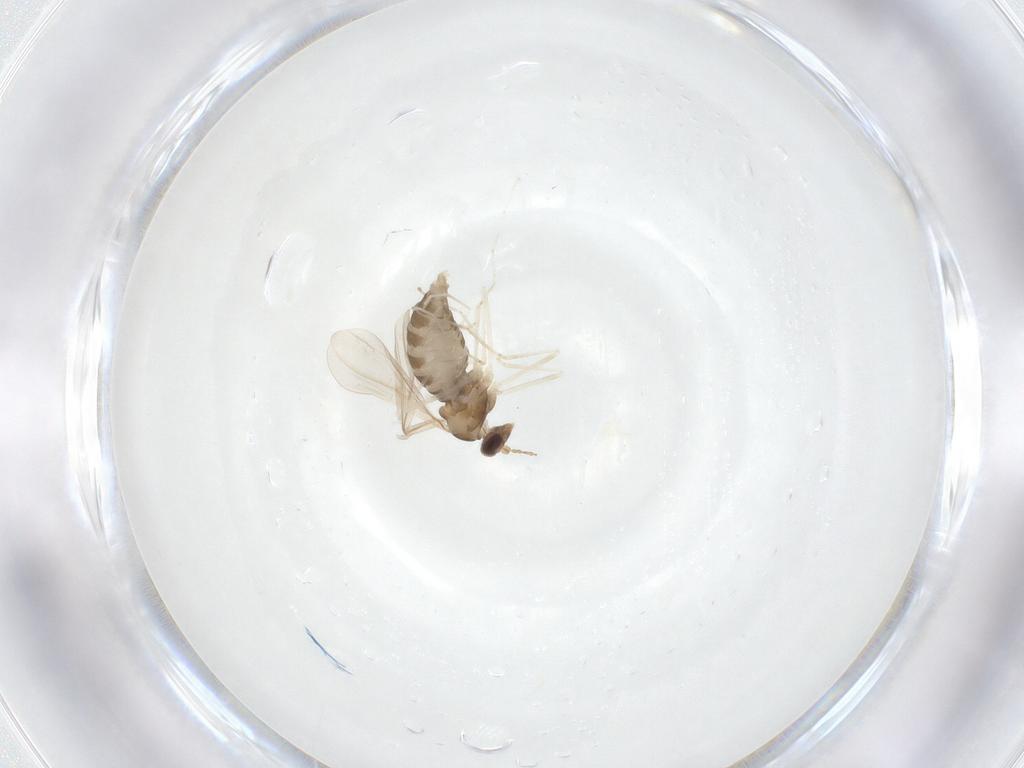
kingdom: Animalia
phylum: Arthropoda
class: Insecta
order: Diptera
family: Cecidomyiidae
